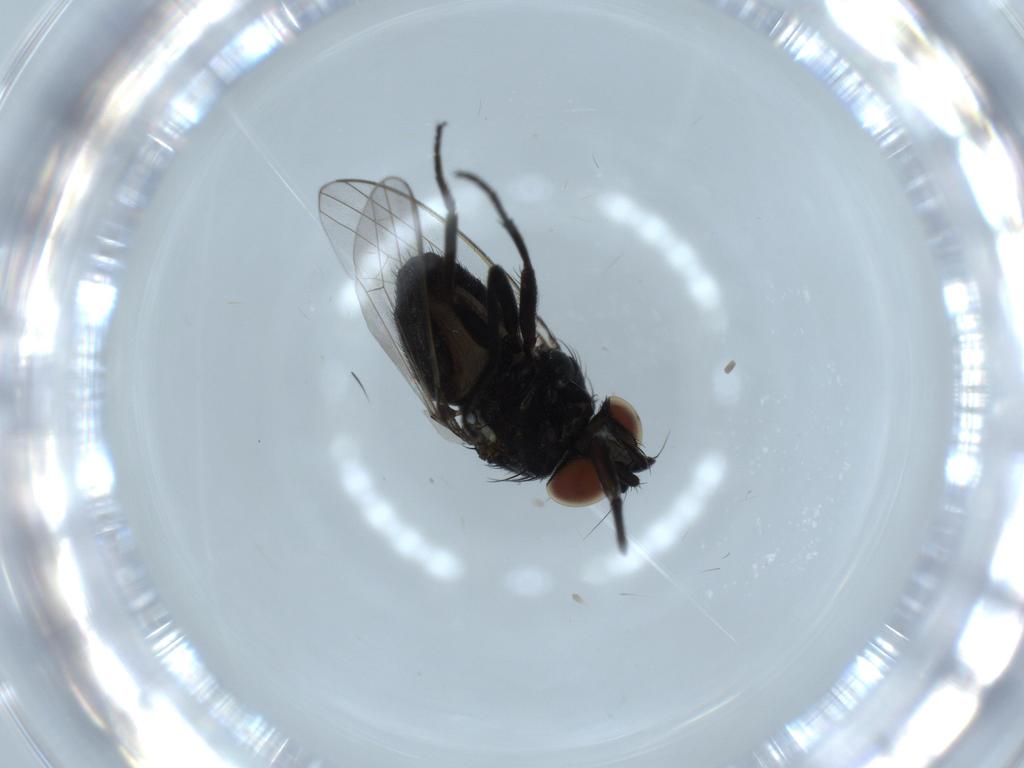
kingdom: Animalia
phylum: Arthropoda
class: Insecta
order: Diptera
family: Milichiidae
